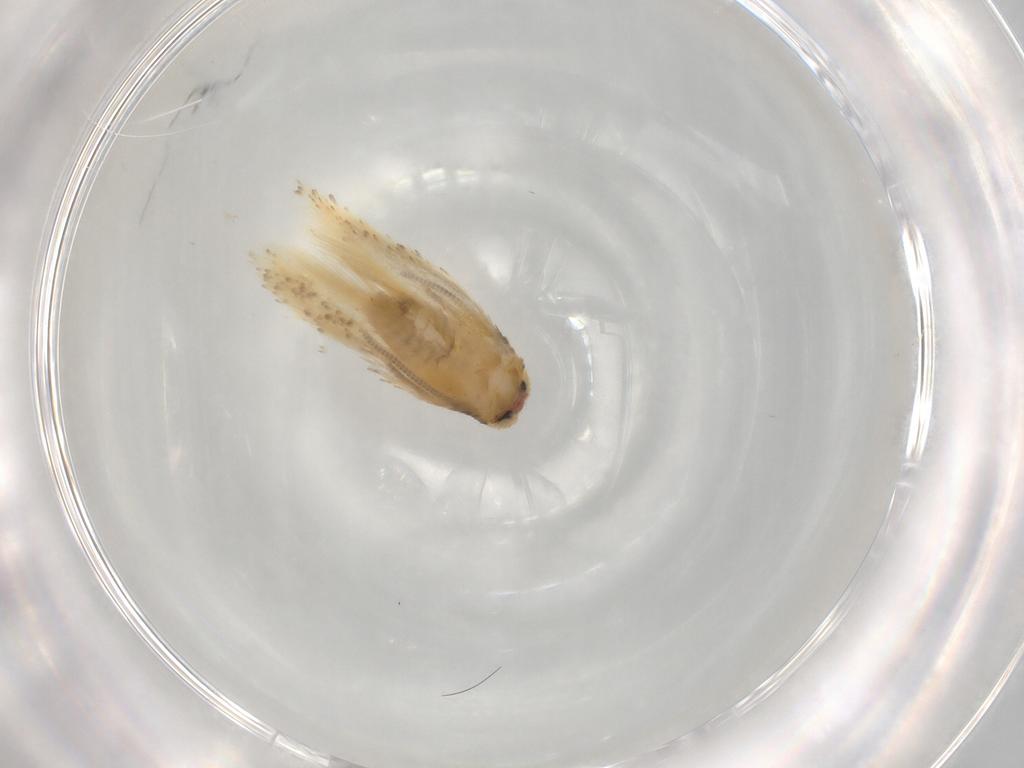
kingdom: Animalia
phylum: Arthropoda
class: Insecta
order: Lepidoptera
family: Nepticulidae
